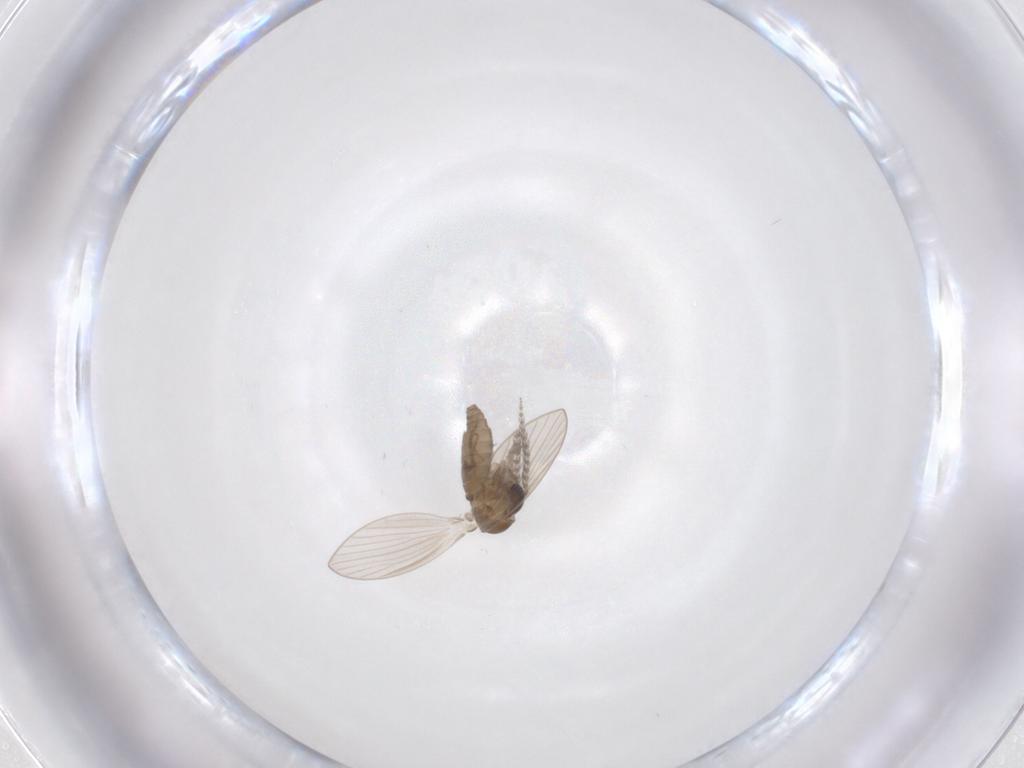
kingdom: Animalia
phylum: Arthropoda
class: Insecta
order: Diptera
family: Psychodidae
